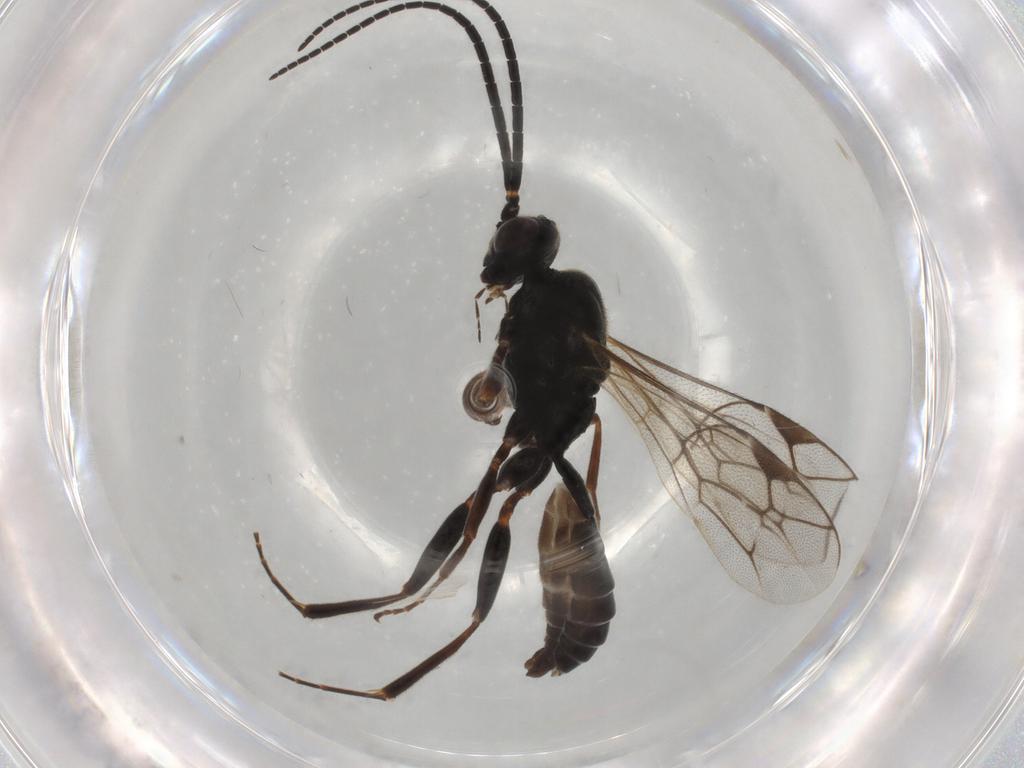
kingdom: Animalia
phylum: Arthropoda
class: Insecta
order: Hymenoptera
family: Ichneumonidae
